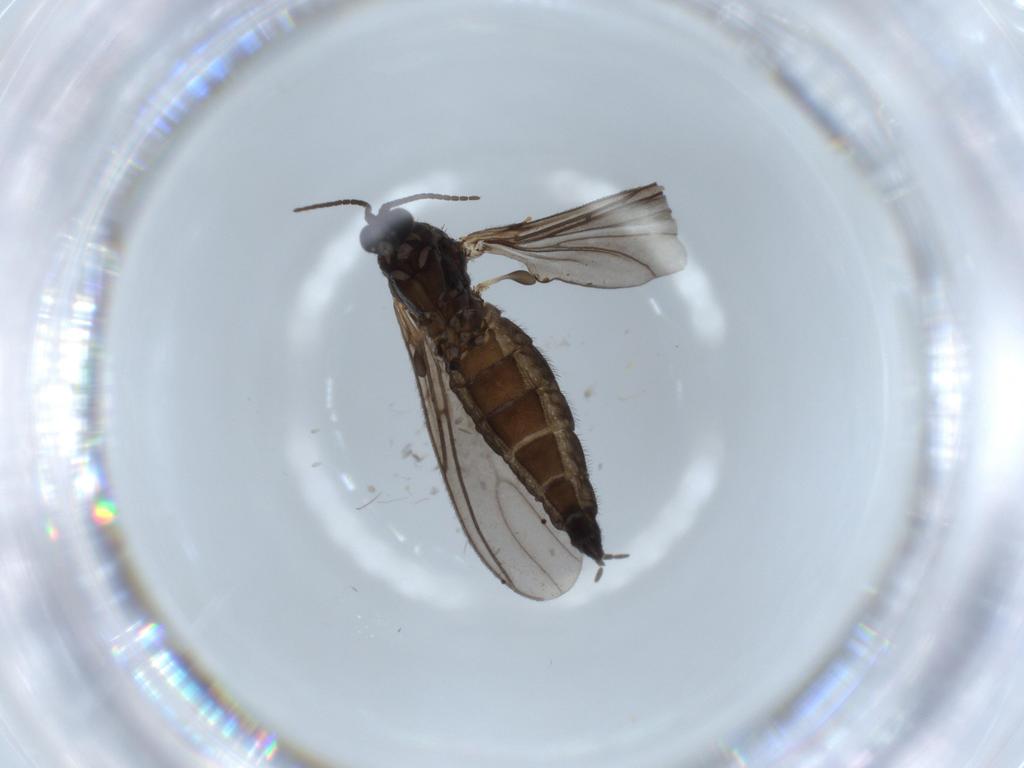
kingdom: Animalia
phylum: Arthropoda
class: Insecta
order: Diptera
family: Sciaridae
